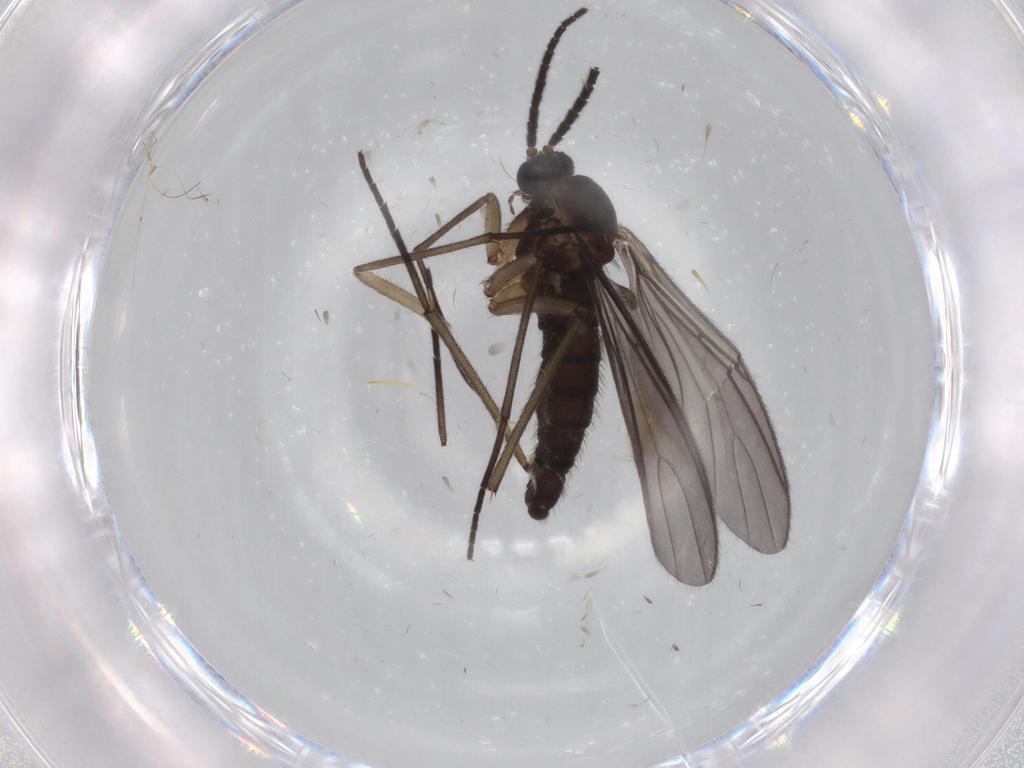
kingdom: Animalia
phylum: Arthropoda
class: Insecta
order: Diptera
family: Sciaridae
